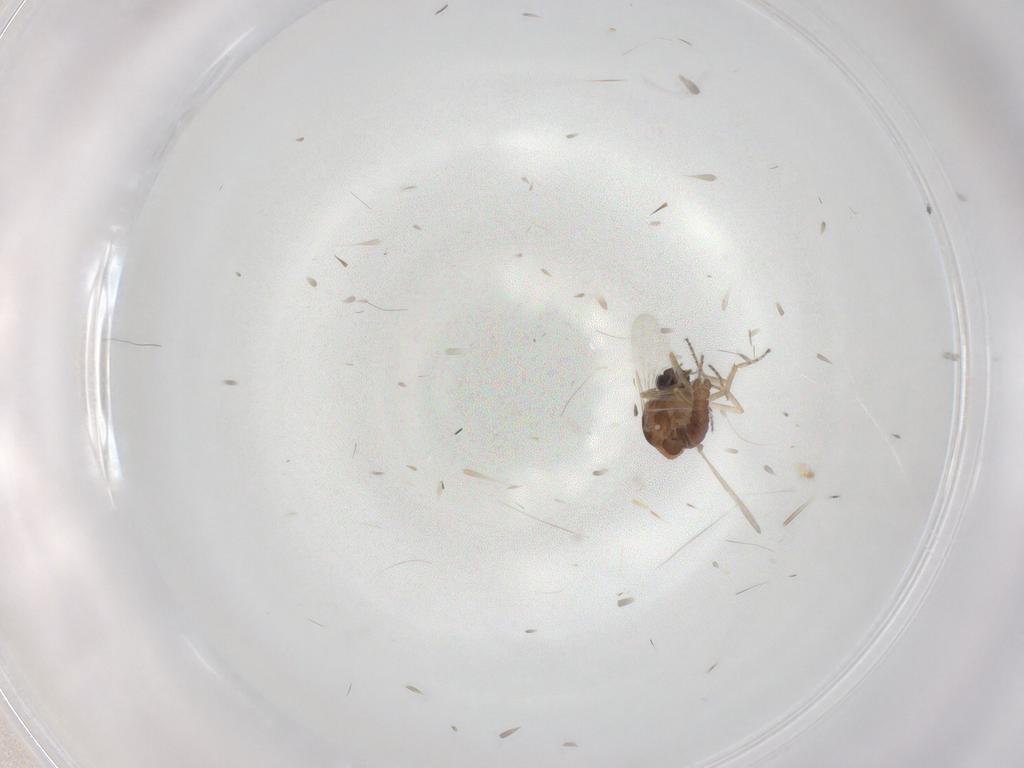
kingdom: Animalia
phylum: Arthropoda
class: Insecta
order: Diptera
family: Ceratopogonidae
